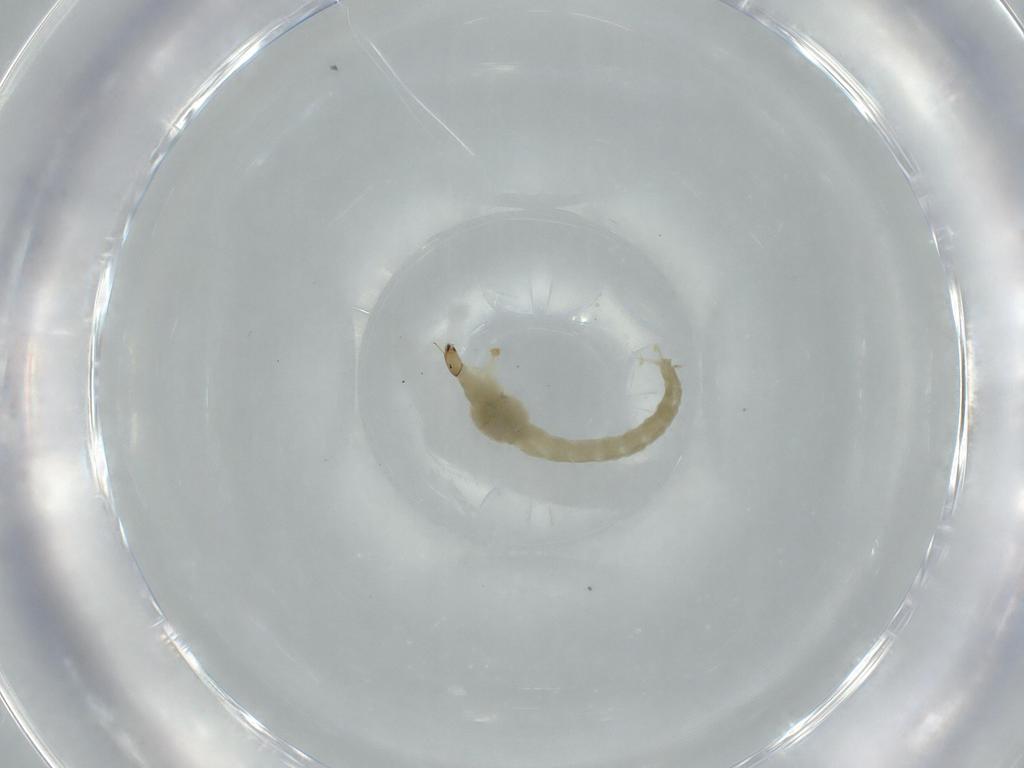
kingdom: Animalia
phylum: Arthropoda
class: Insecta
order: Diptera
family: Chironomidae
